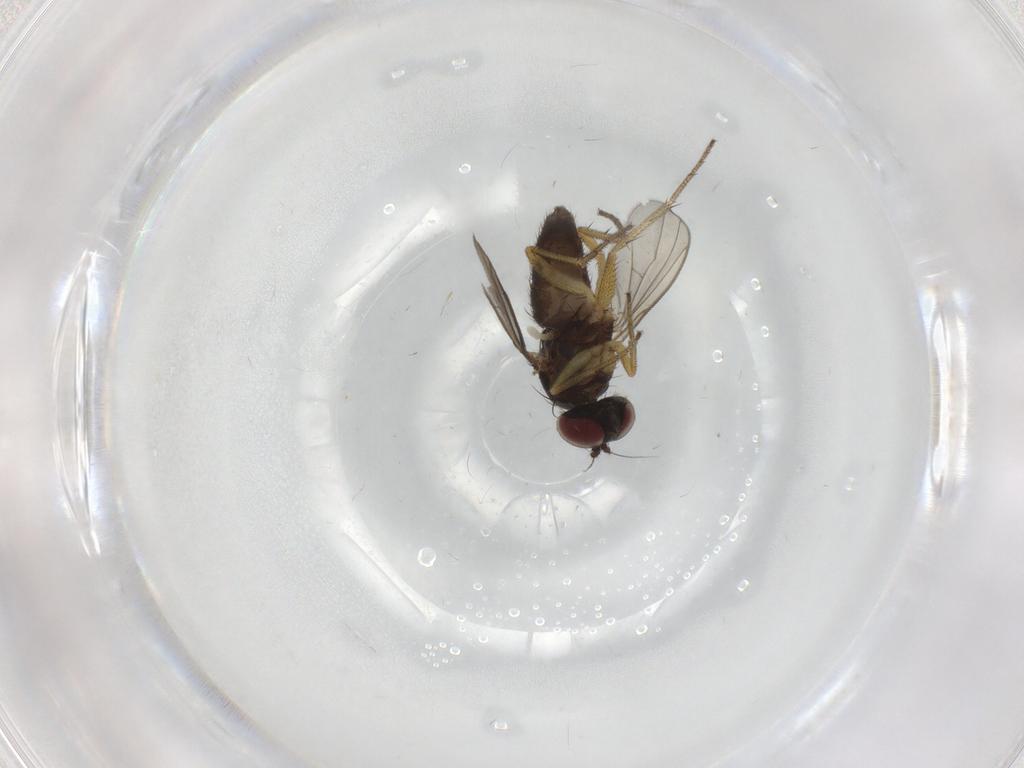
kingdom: Animalia
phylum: Arthropoda
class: Insecta
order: Diptera
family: Dolichopodidae
